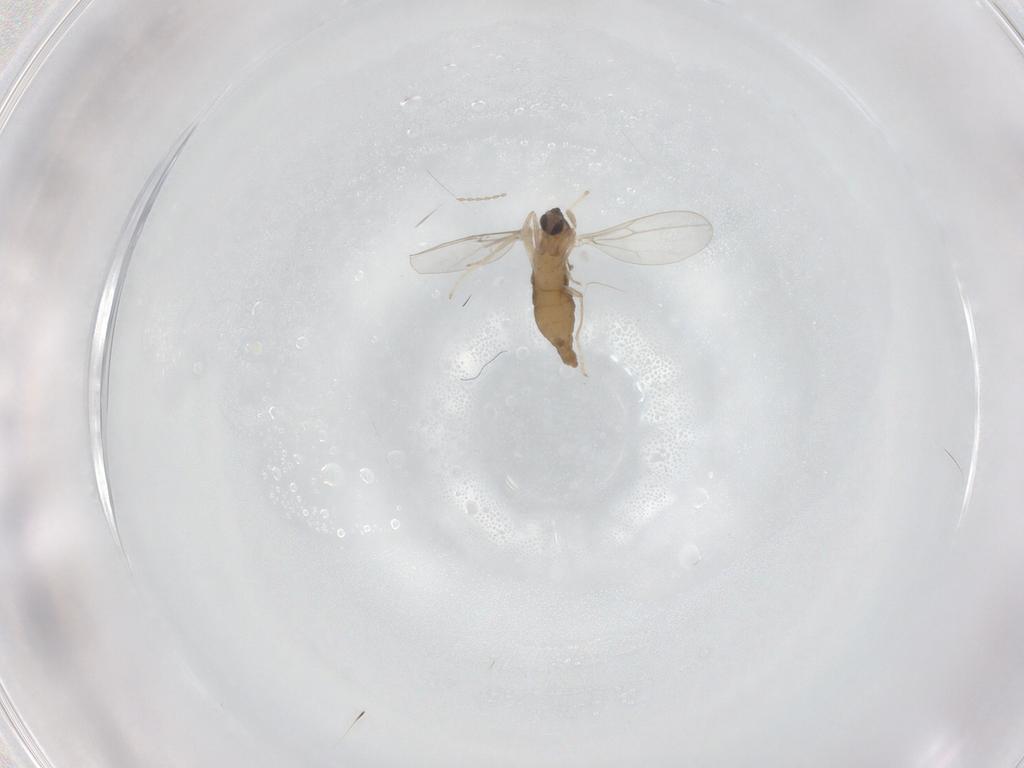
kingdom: Animalia
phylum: Arthropoda
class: Insecta
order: Diptera
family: Cecidomyiidae
